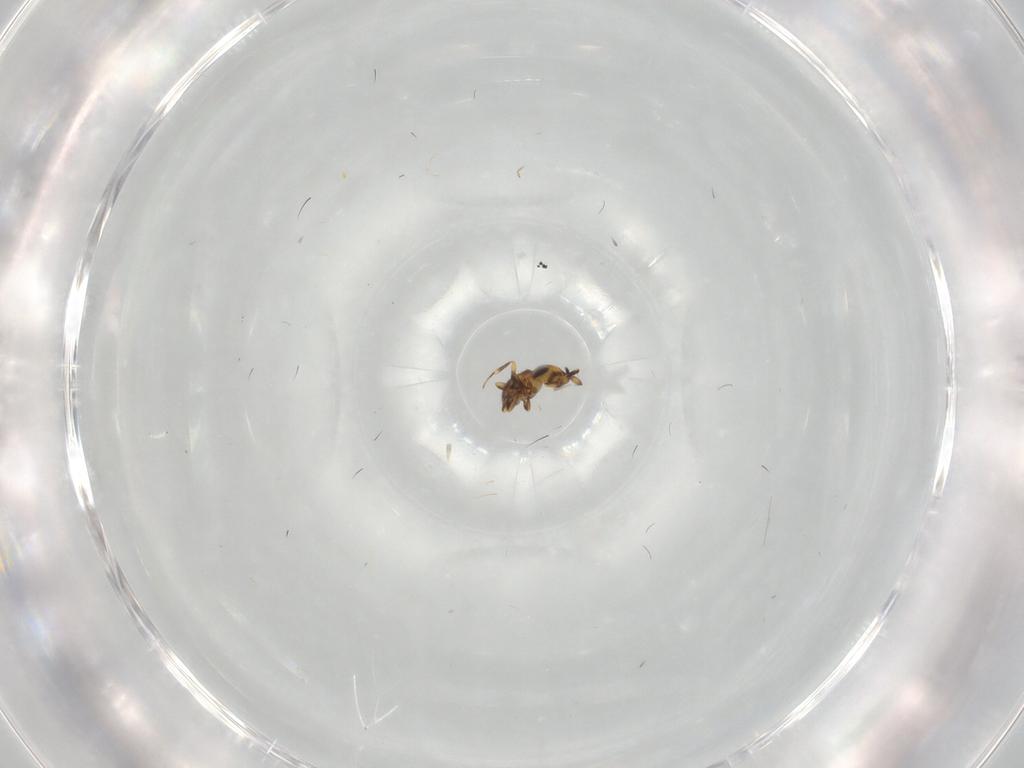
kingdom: Animalia
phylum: Arthropoda
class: Insecta
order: Hymenoptera
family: Scelionidae
